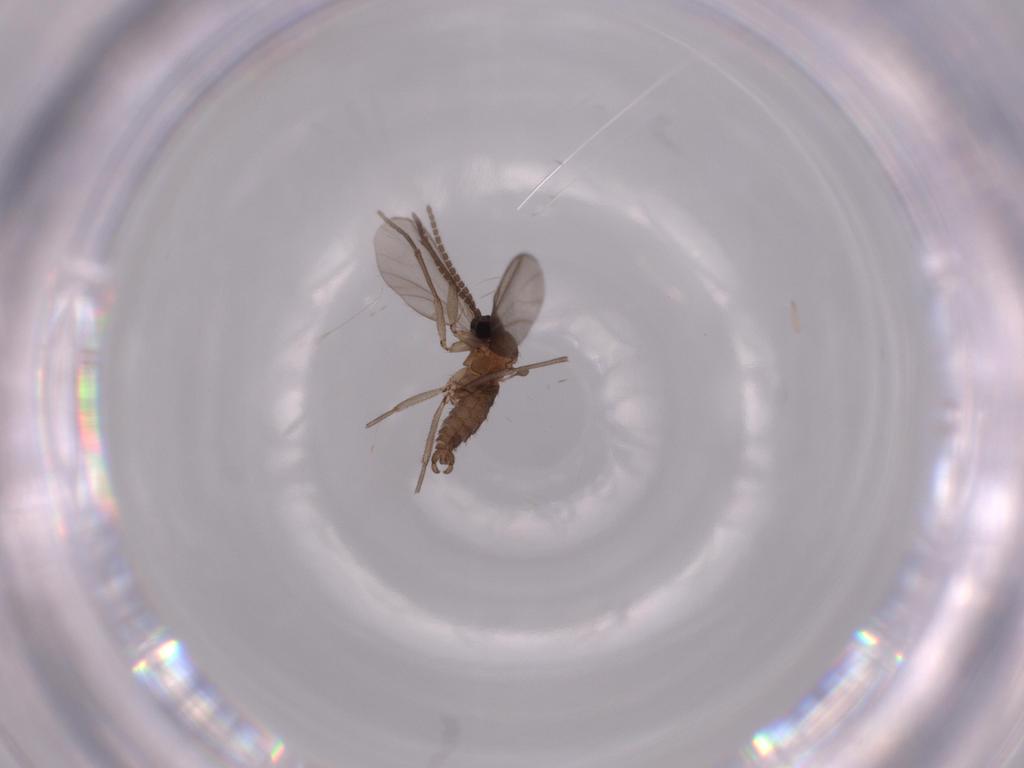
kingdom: Animalia
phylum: Arthropoda
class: Insecta
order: Diptera
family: Sciaridae
